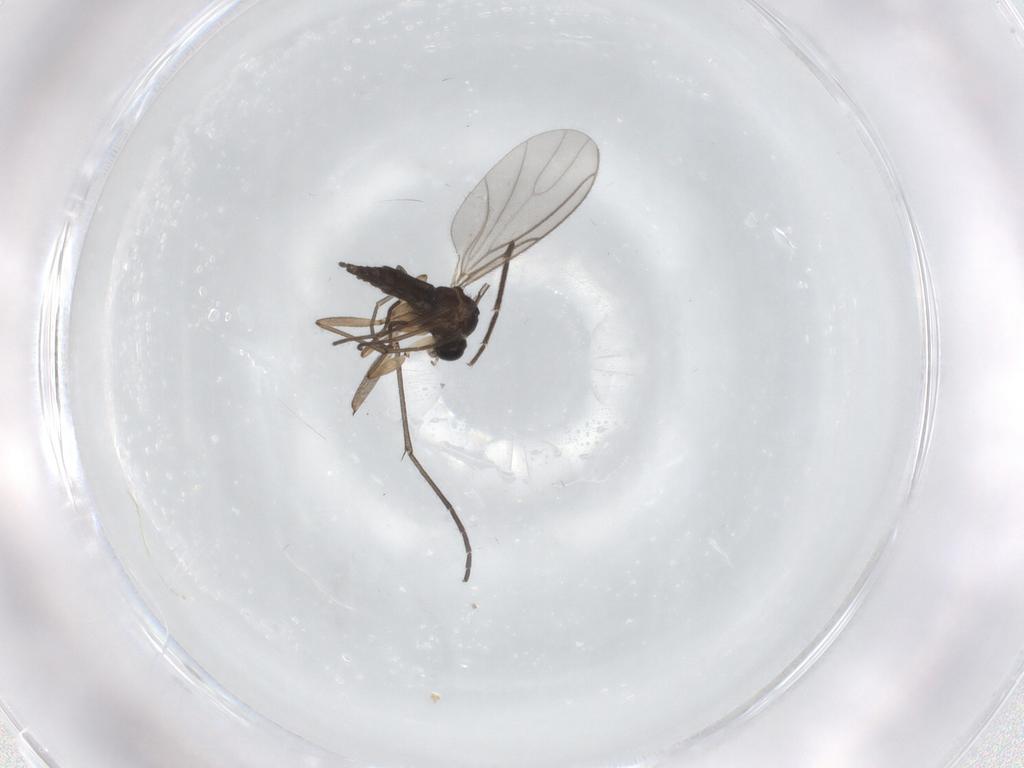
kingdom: Animalia
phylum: Arthropoda
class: Insecta
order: Diptera
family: Sciaridae
